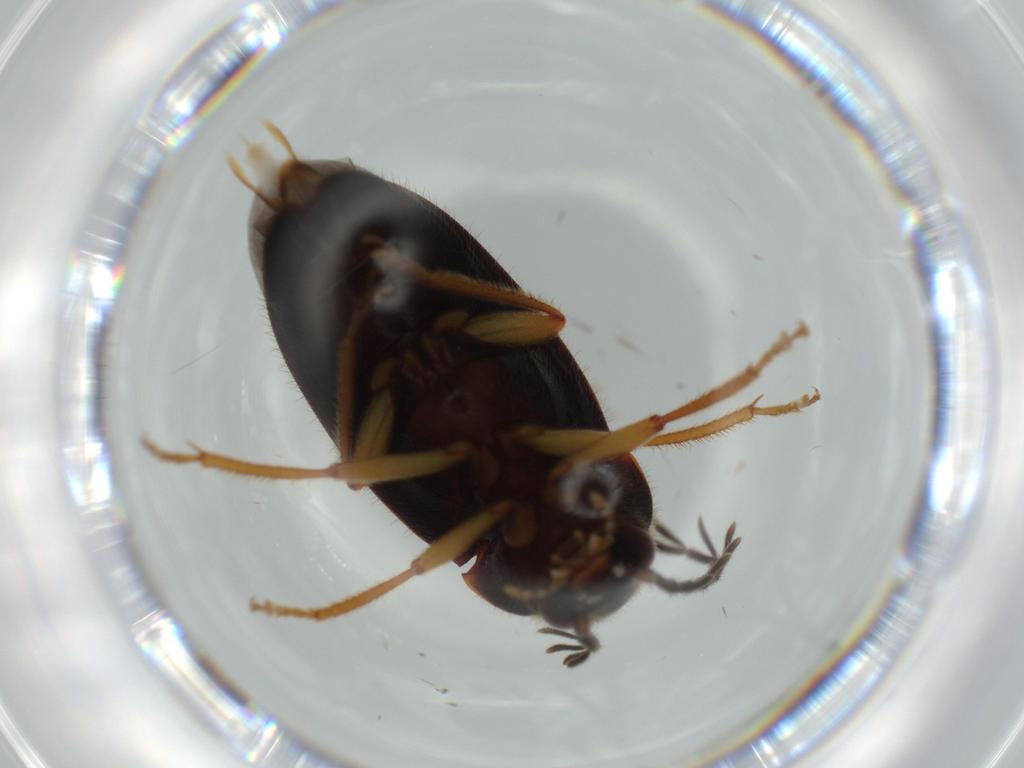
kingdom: Animalia
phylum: Arthropoda
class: Insecta
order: Coleoptera
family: Ptilodactylidae
